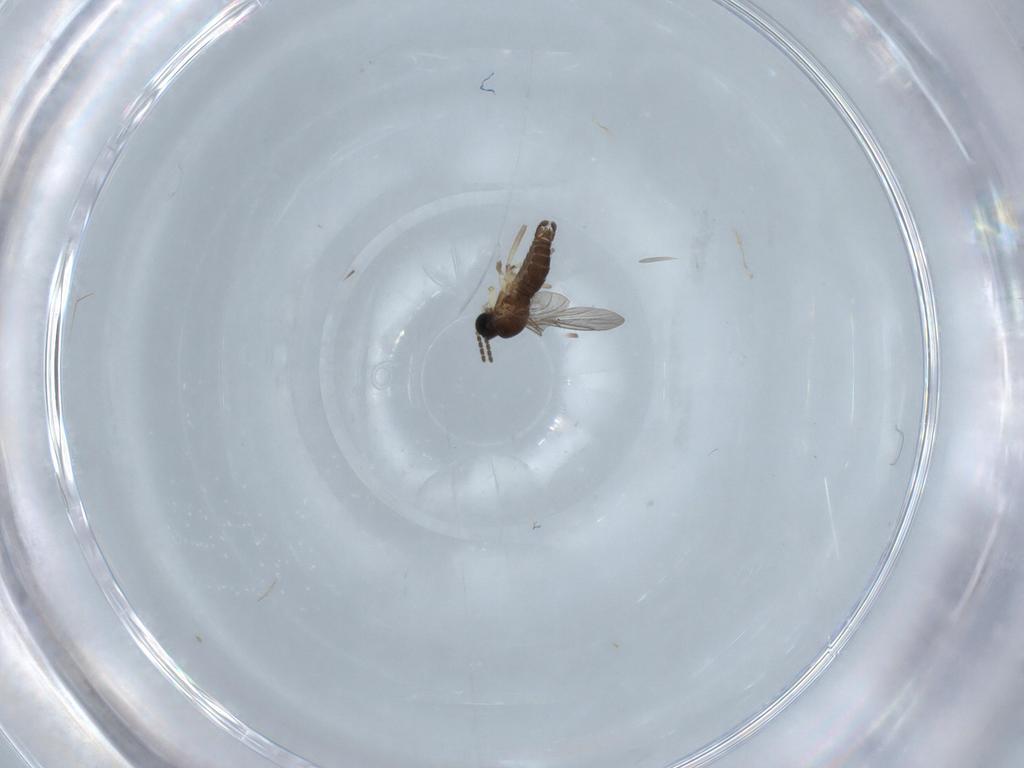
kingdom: Animalia
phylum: Arthropoda
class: Insecta
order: Diptera
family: Sciaridae
